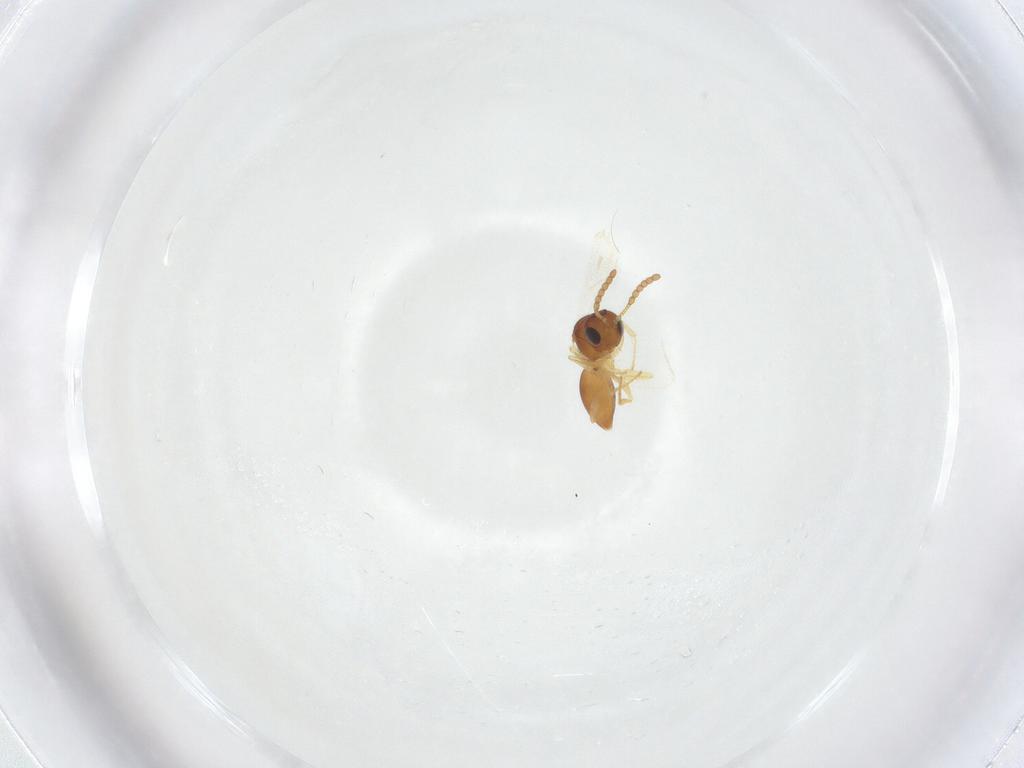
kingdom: Animalia
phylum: Arthropoda
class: Insecta
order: Hymenoptera
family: Figitidae
